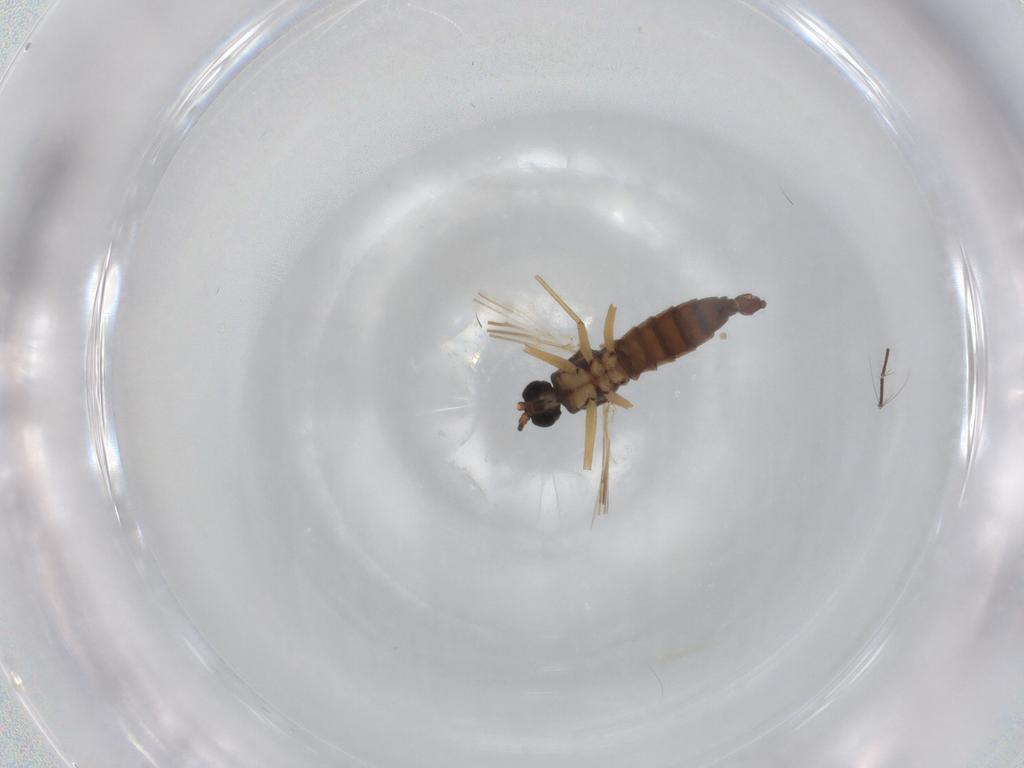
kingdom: Animalia
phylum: Arthropoda
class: Insecta
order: Diptera
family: Sciaridae
